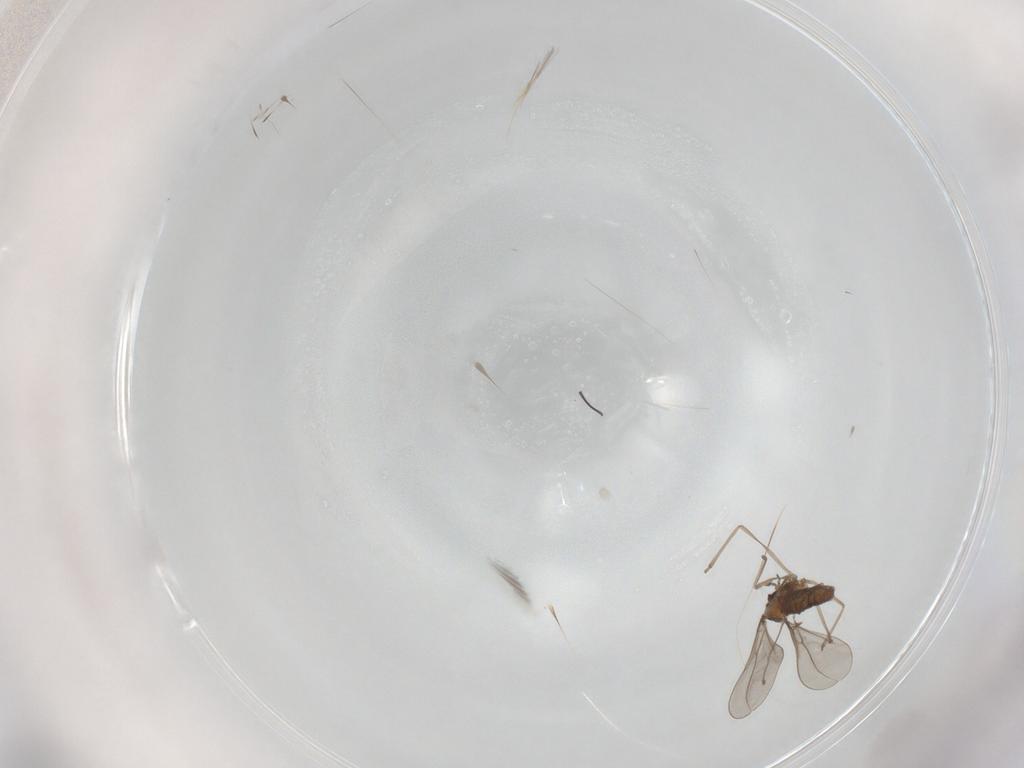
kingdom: Animalia
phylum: Arthropoda
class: Insecta
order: Diptera
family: Cecidomyiidae
